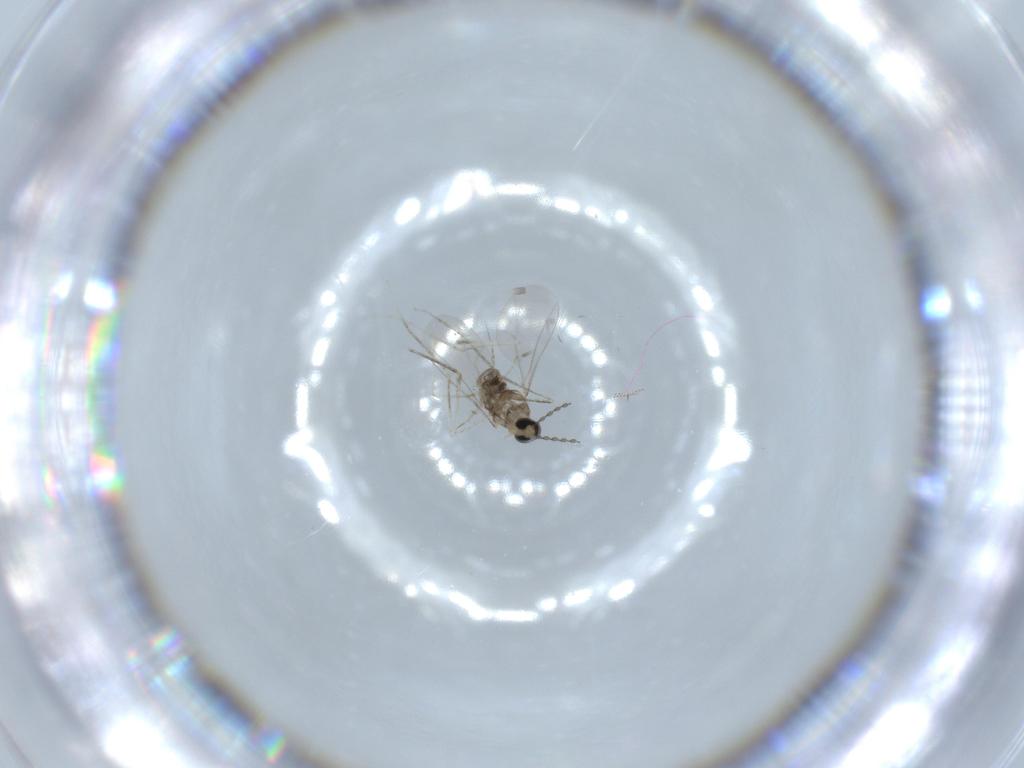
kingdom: Animalia
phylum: Arthropoda
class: Insecta
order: Diptera
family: Cecidomyiidae
